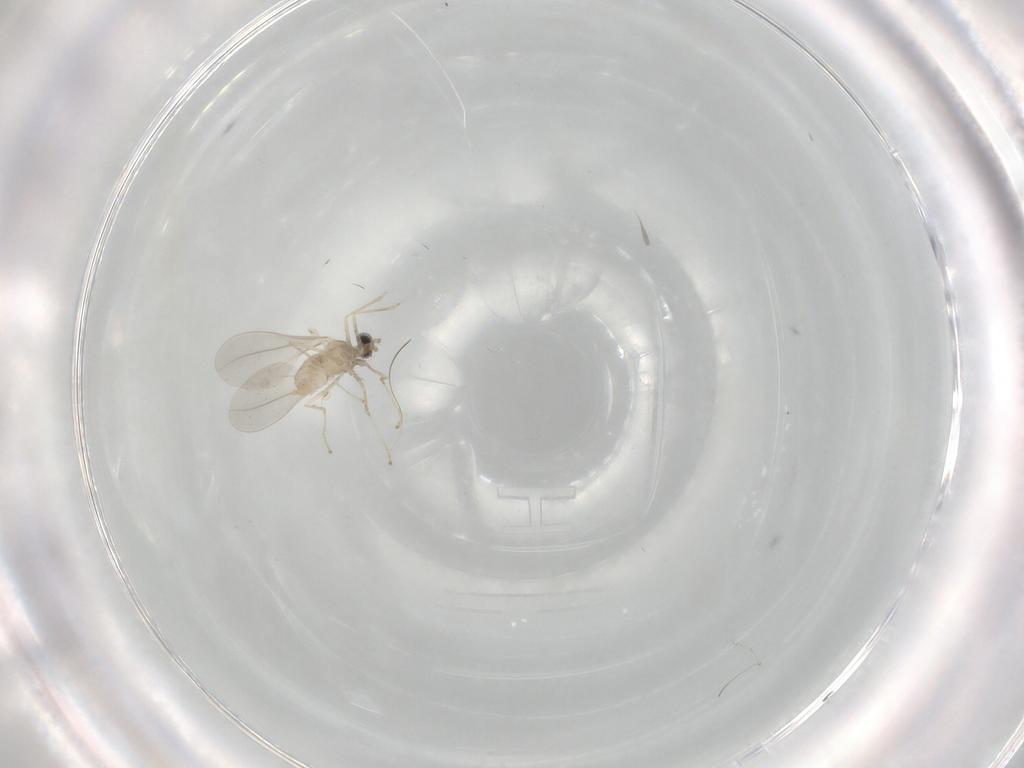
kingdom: Animalia
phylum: Arthropoda
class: Insecta
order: Diptera
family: Cecidomyiidae
